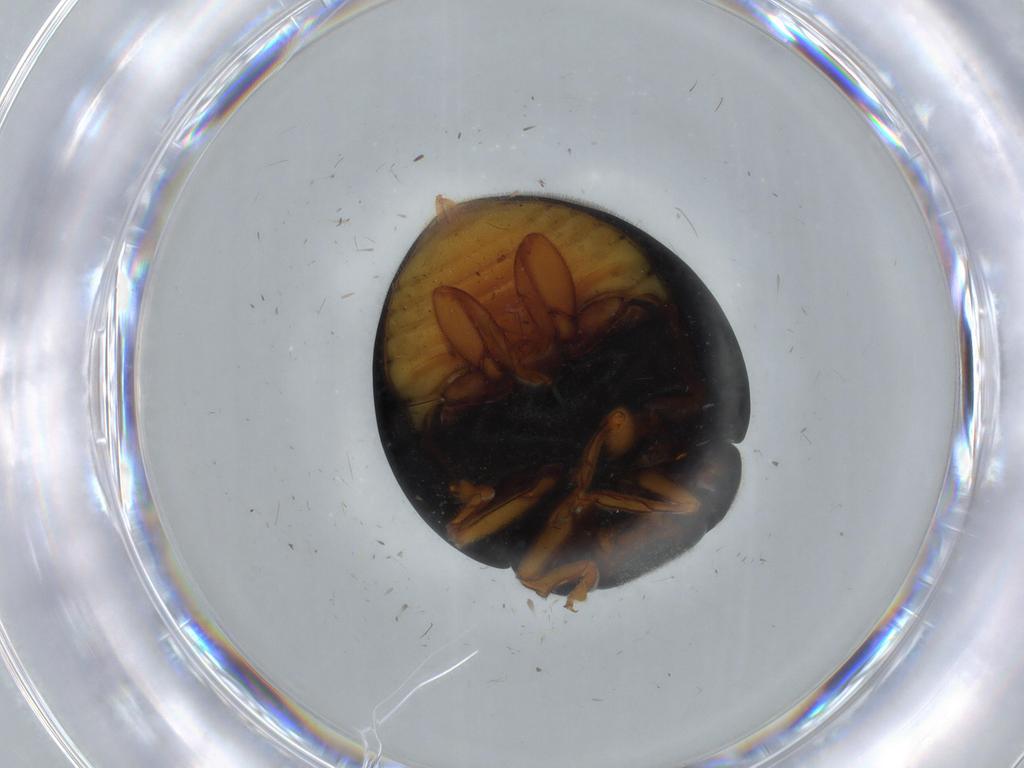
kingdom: Animalia
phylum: Arthropoda
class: Insecta
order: Coleoptera
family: Coccinellidae
